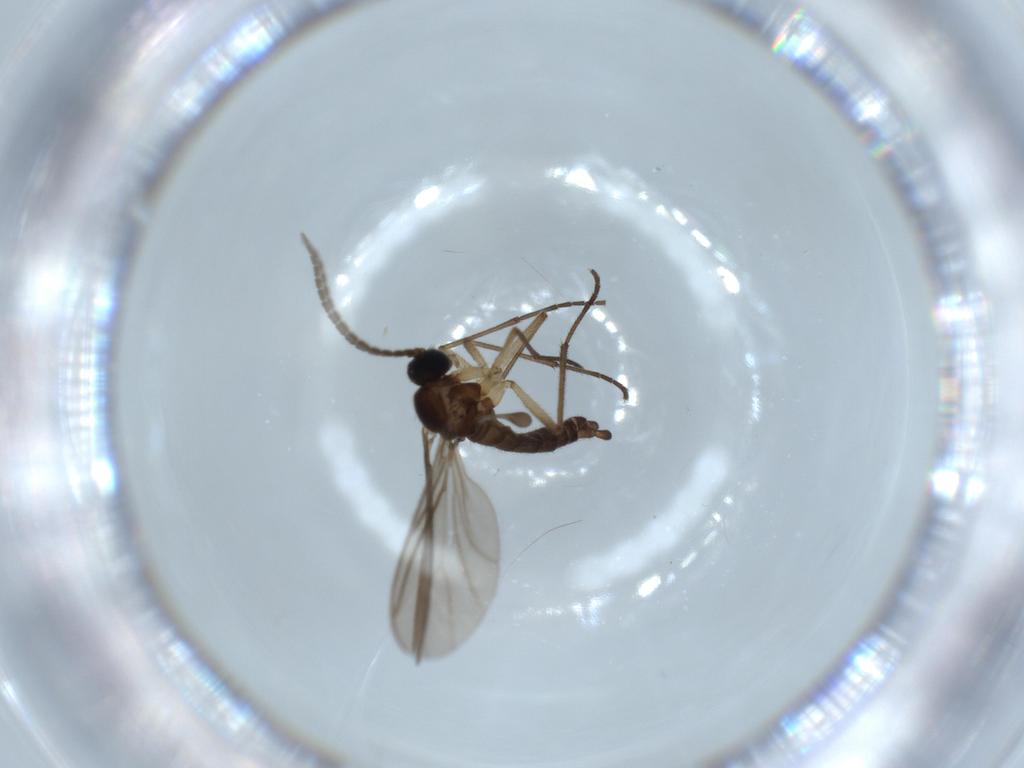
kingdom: Animalia
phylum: Arthropoda
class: Insecta
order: Diptera
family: Sciaridae
